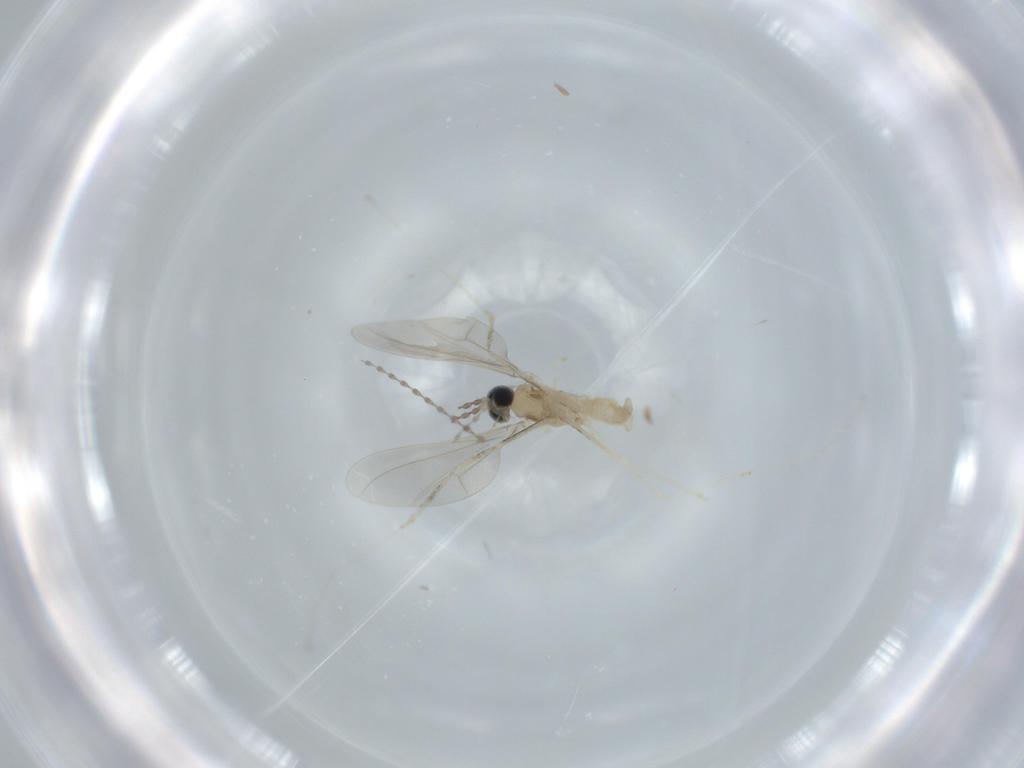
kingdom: Animalia
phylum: Arthropoda
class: Insecta
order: Diptera
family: Cecidomyiidae
